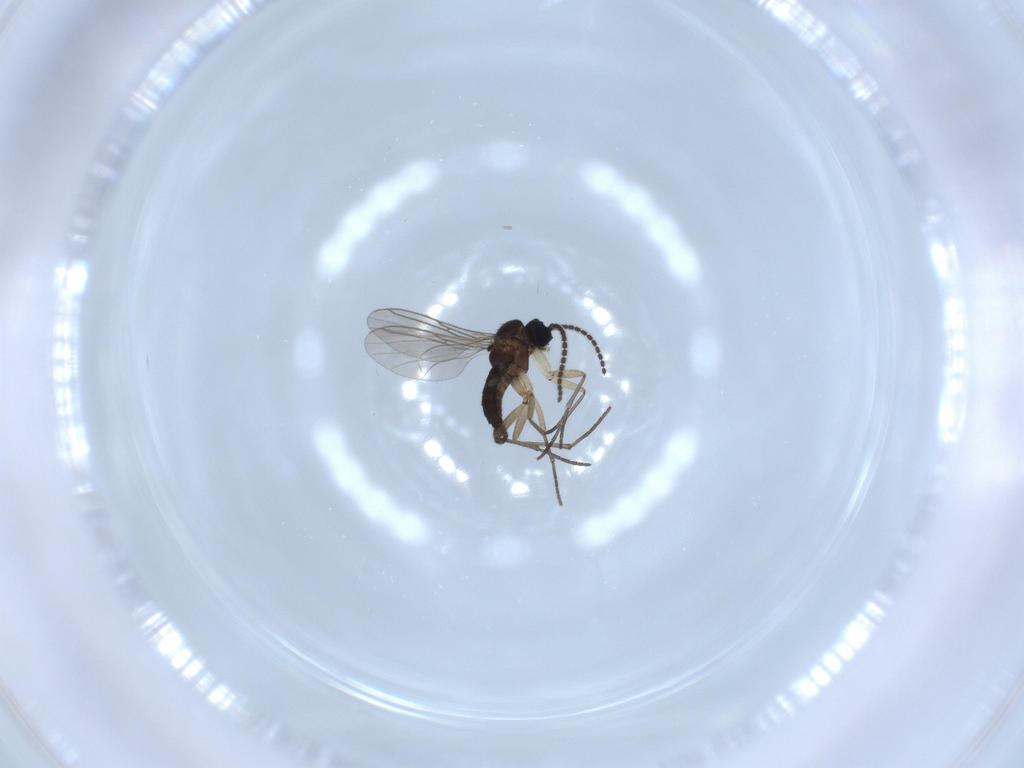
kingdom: Animalia
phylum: Arthropoda
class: Insecta
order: Diptera
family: Sciaridae
